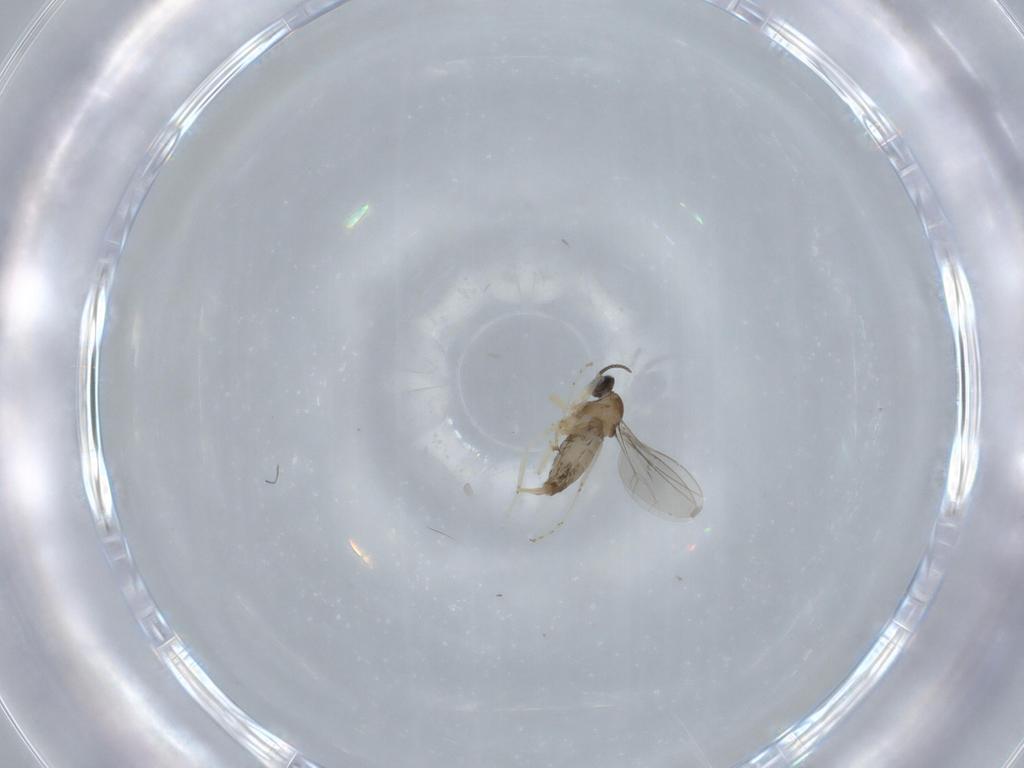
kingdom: Animalia
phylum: Arthropoda
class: Insecta
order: Diptera
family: Cecidomyiidae
